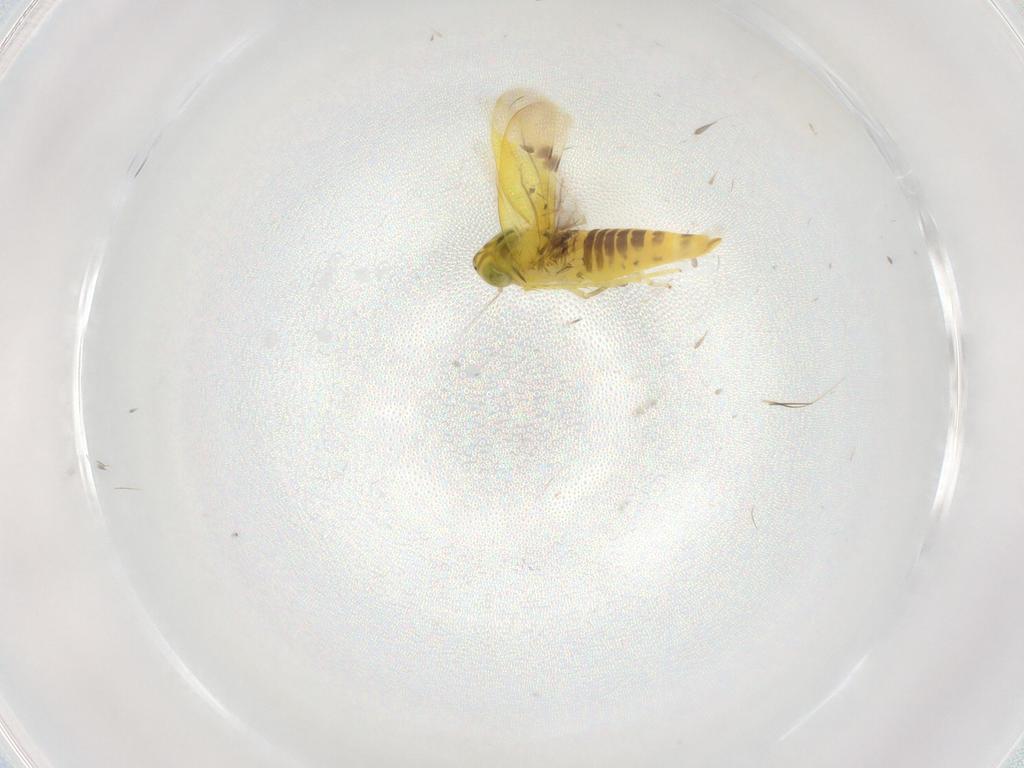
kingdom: Animalia
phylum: Arthropoda
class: Insecta
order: Hemiptera
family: Cicadellidae
